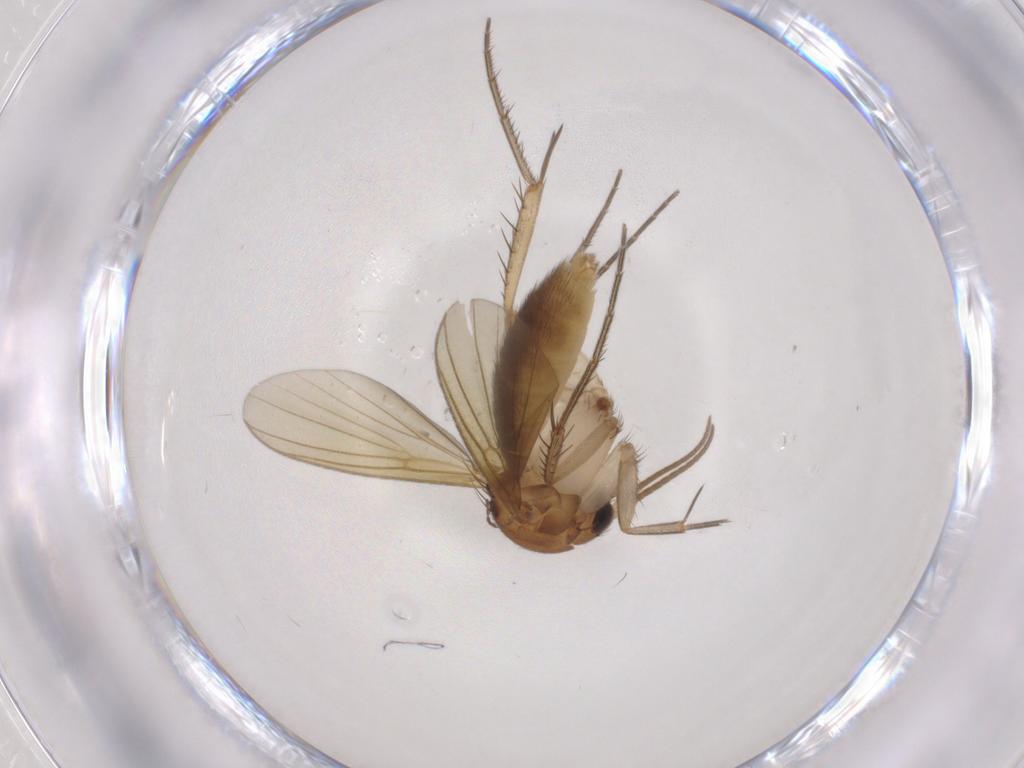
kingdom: Animalia
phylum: Arthropoda
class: Insecta
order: Diptera
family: Mycetophilidae
